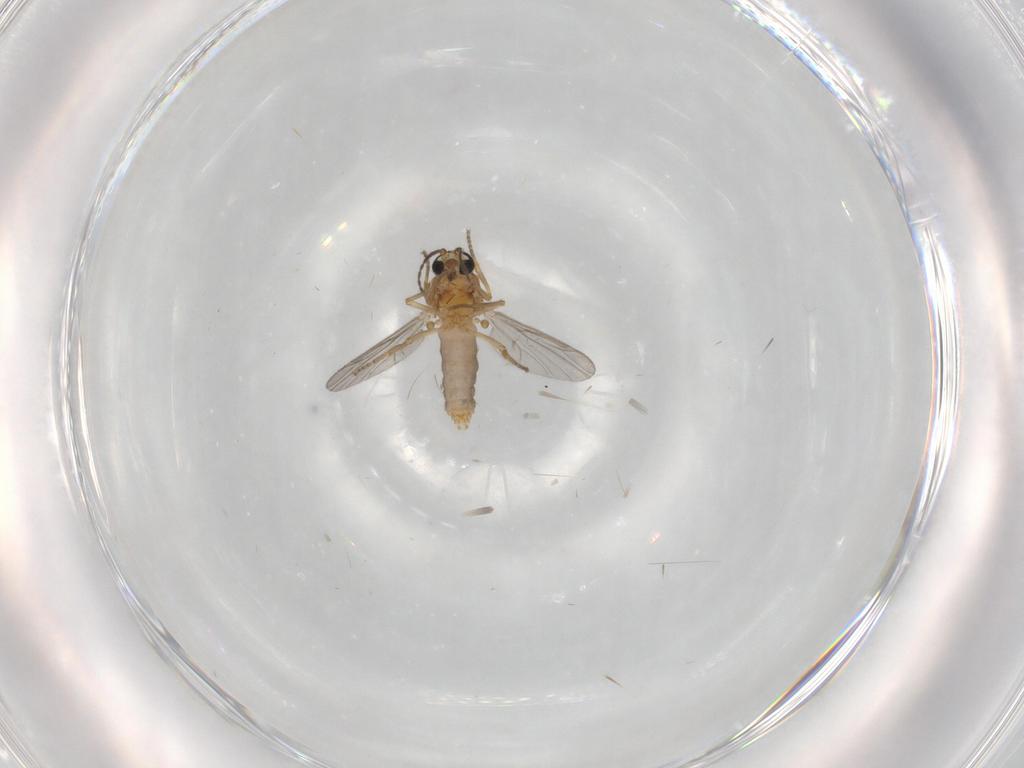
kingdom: Animalia
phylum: Arthropoda
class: Insecta
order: Diptera
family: Ceratopogonidae
